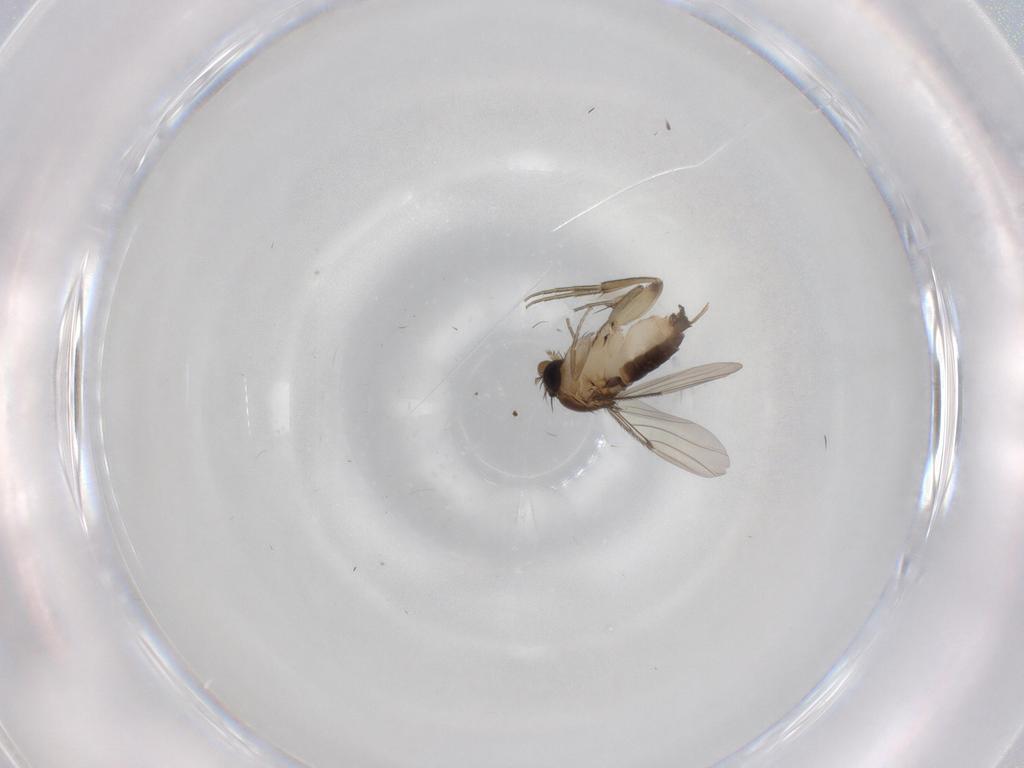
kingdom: Animalia
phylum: Arthropoda
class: Insecta
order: Diptera
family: Phoridae
